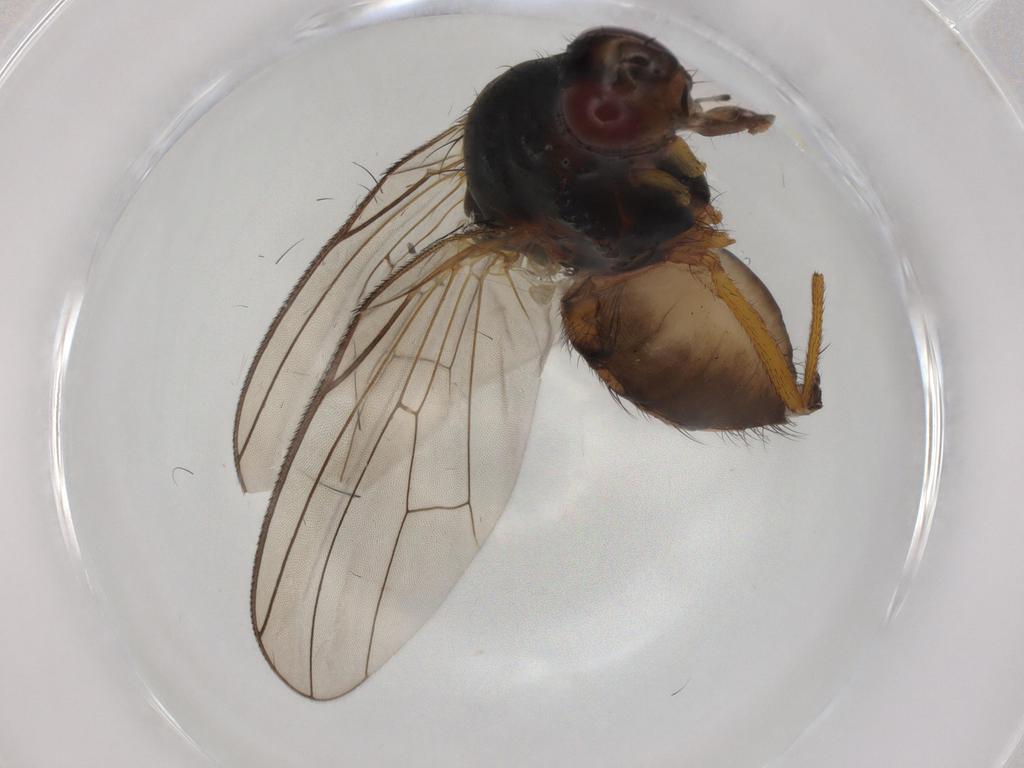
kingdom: Animalia
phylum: Arthropoda
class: Insecta
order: Diptera
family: Anthomyiidae
